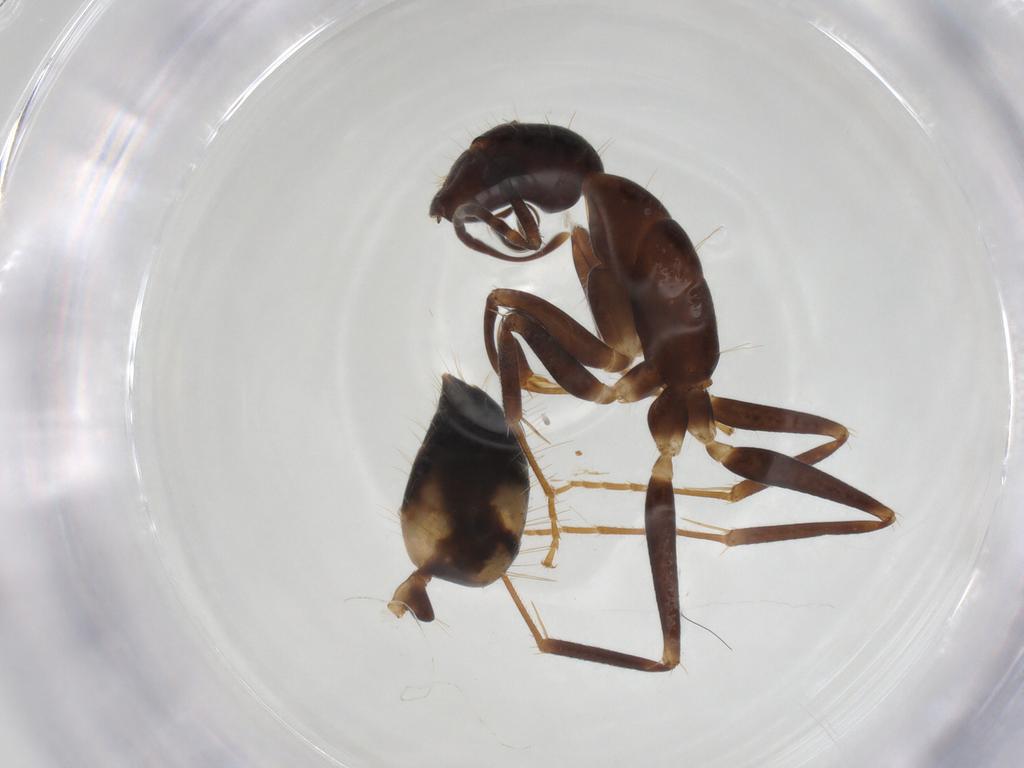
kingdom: Animalia
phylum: Arthropoda
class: Insecta
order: Hymenoptera
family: Formicidae
